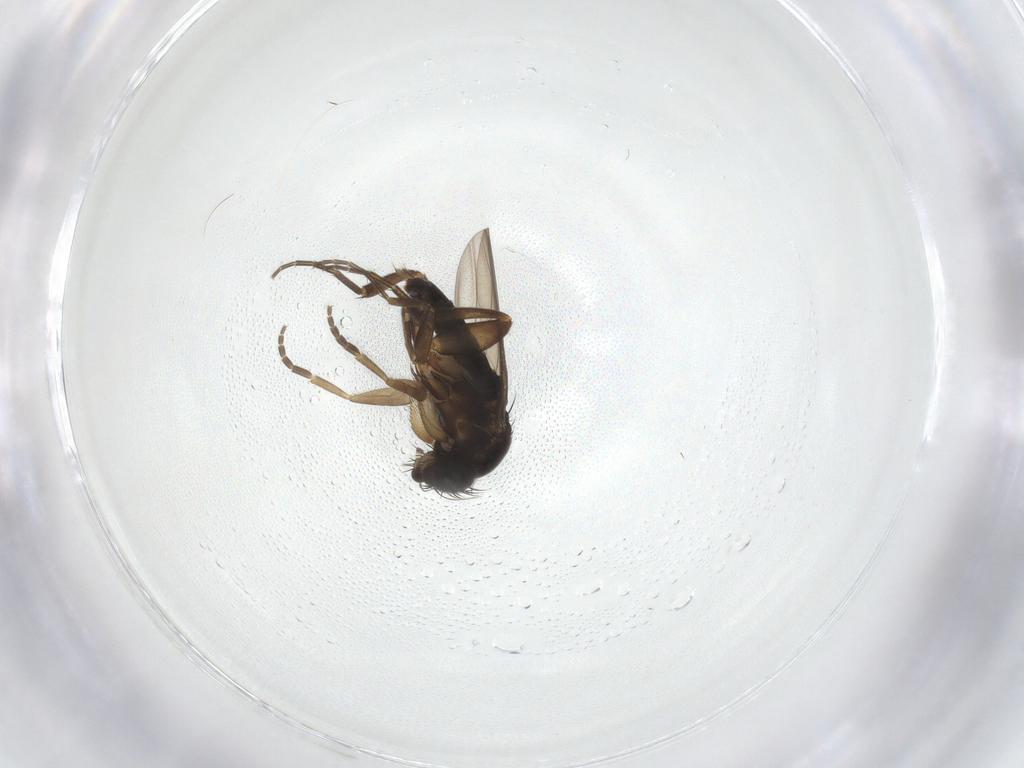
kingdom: Animalia
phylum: Arthropoda
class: Insecta
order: Diptera
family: Phoridae
